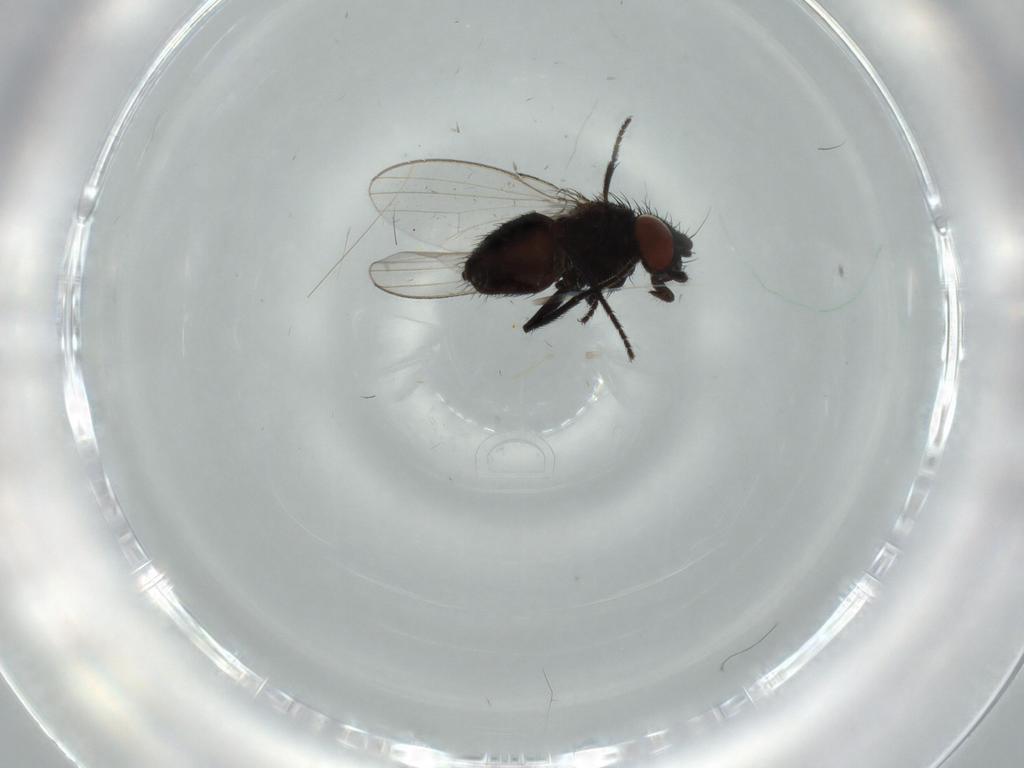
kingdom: Animalia
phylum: Arthropoda
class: Insecta
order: Diptera
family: Milichiidae
